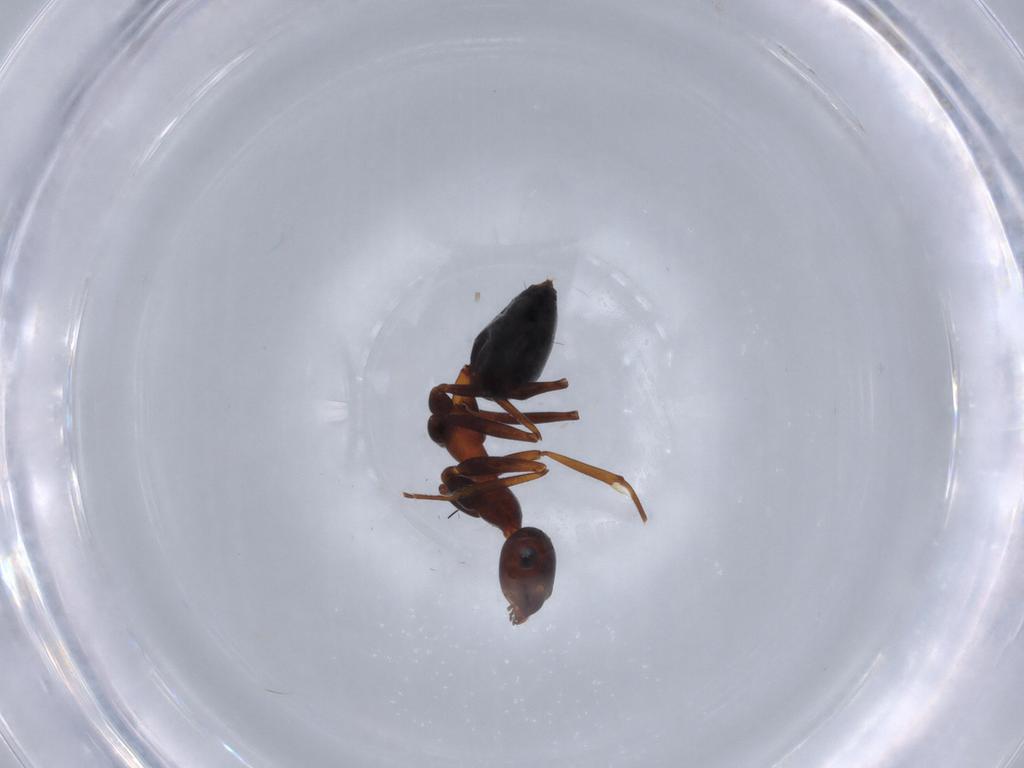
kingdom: Animalia
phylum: Arthropoda
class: Insecta
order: Hymenoptera
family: Formicidae
